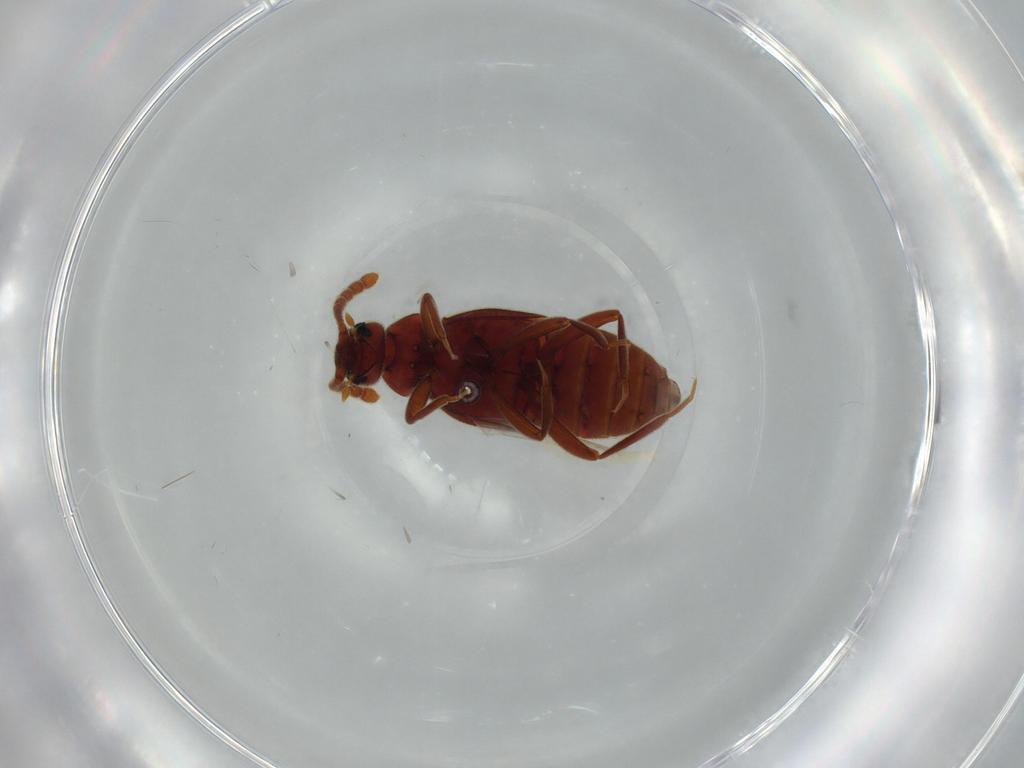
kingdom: Animalia
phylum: Arthropoda
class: Insecta
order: Coleoptera
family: Staphylinidae
